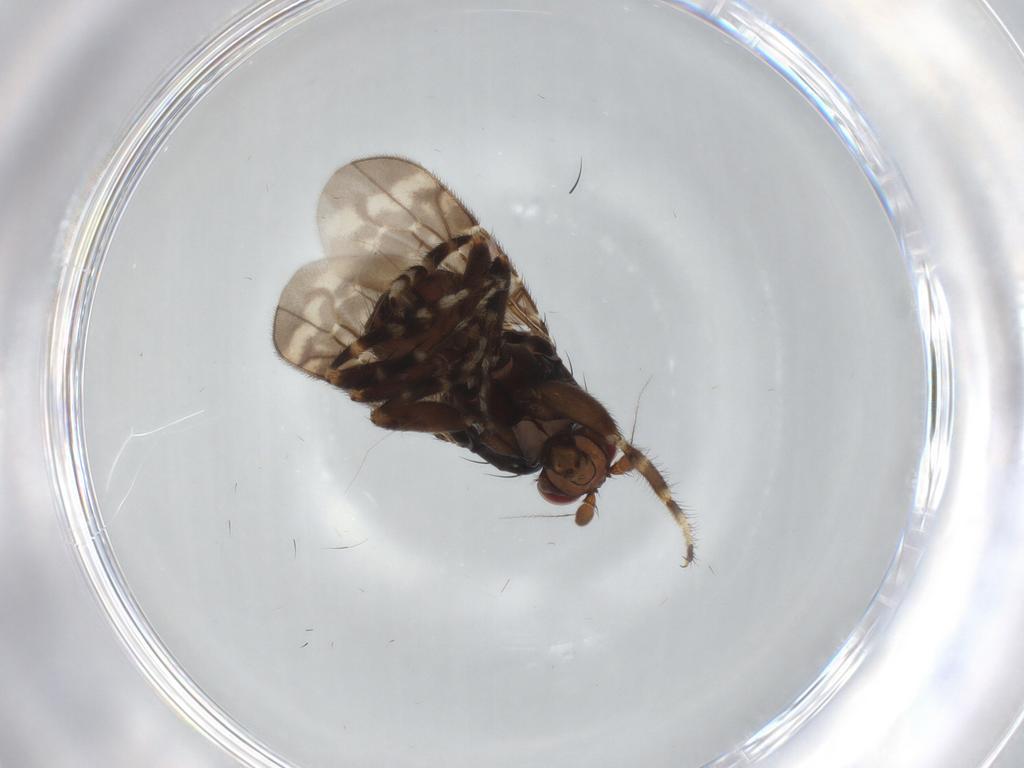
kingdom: Animalia
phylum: Arthropoda
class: Insecta
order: Diptera
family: Sphaeroceridae
